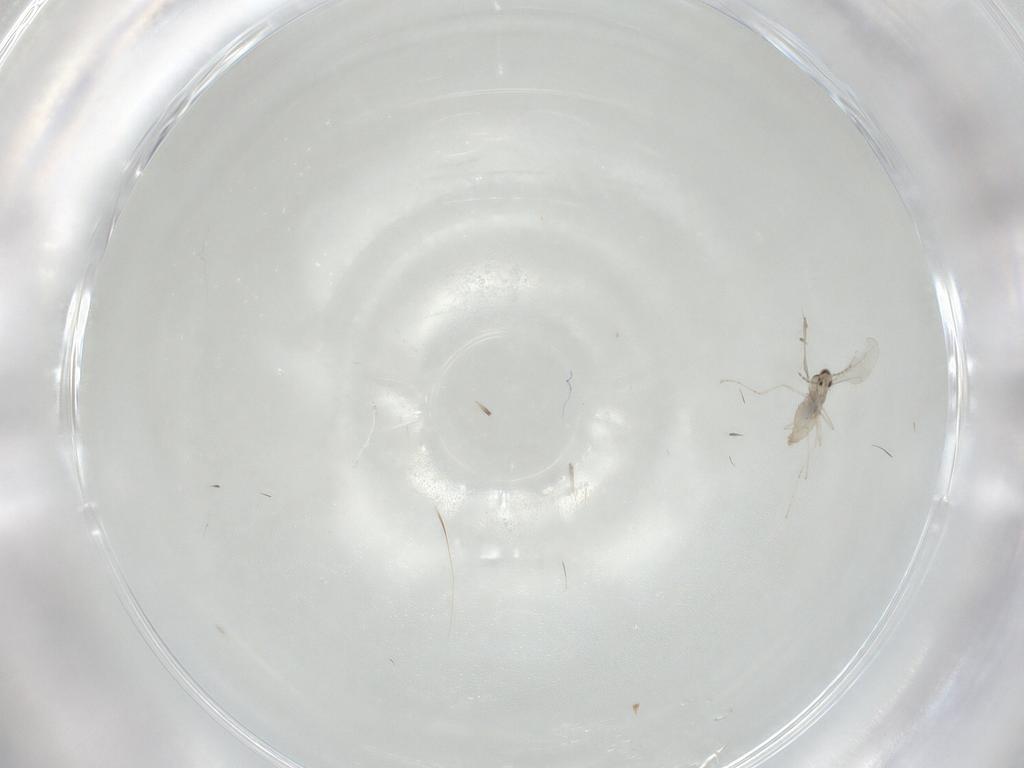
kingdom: Animalia
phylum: Arthropoda
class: Insecta
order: Diptera
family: Cecidomyiidae
